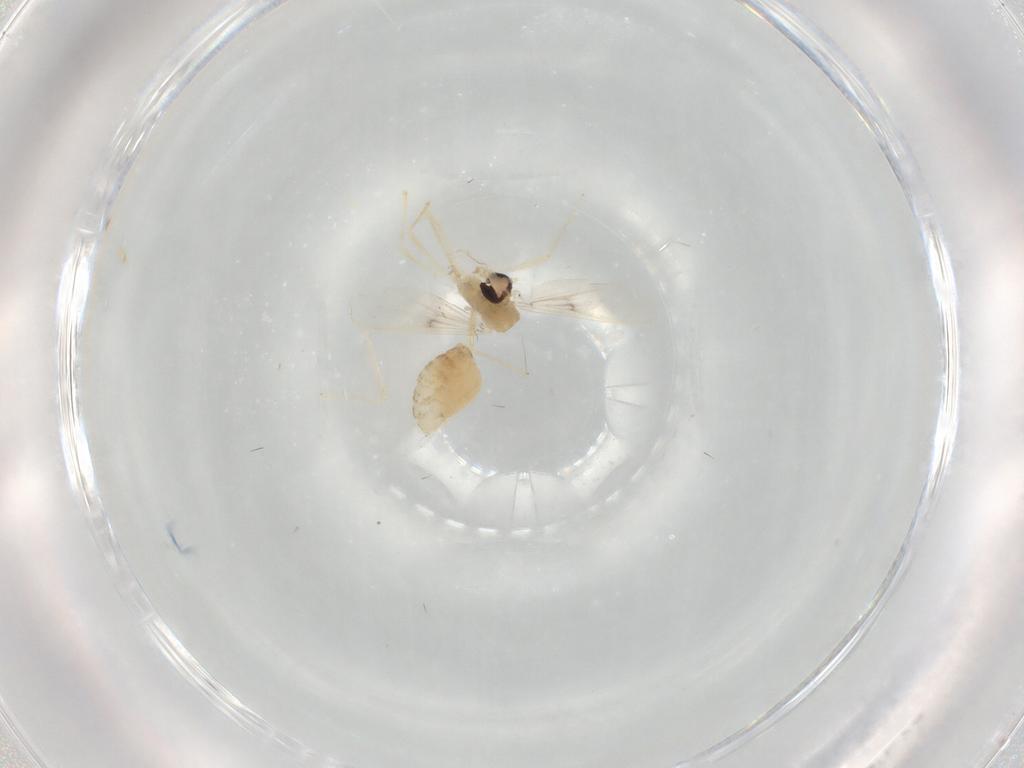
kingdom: Animalia
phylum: Arthropoda
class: Insecta
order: Diptera
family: Chironomidae
